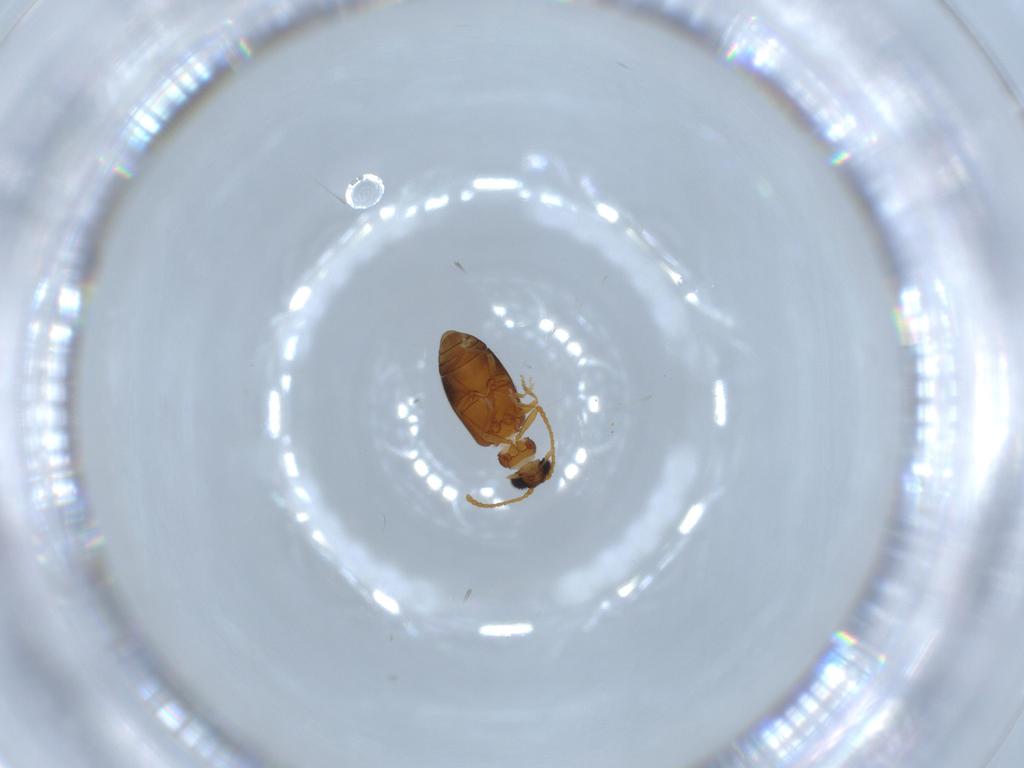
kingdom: Animalia
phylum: Arthropoda
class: Insecta
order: Coleoptera
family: Aderidae
